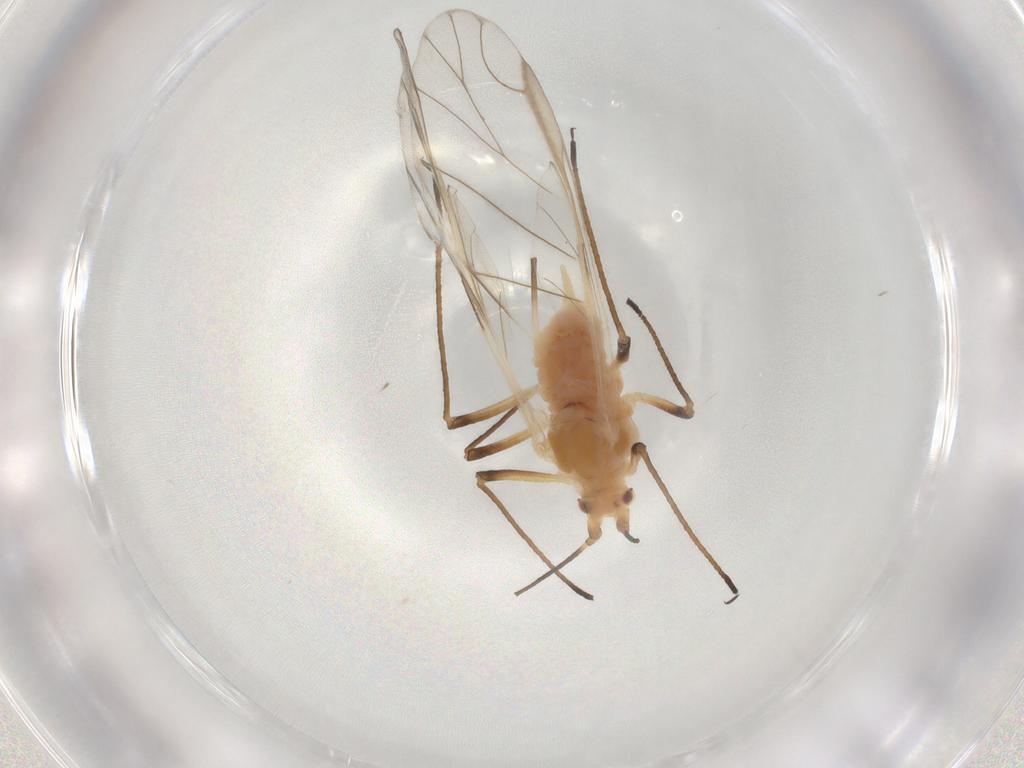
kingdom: Animalia
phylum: Arthropoda
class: Insecta
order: Hemiptera
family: Aphididae
